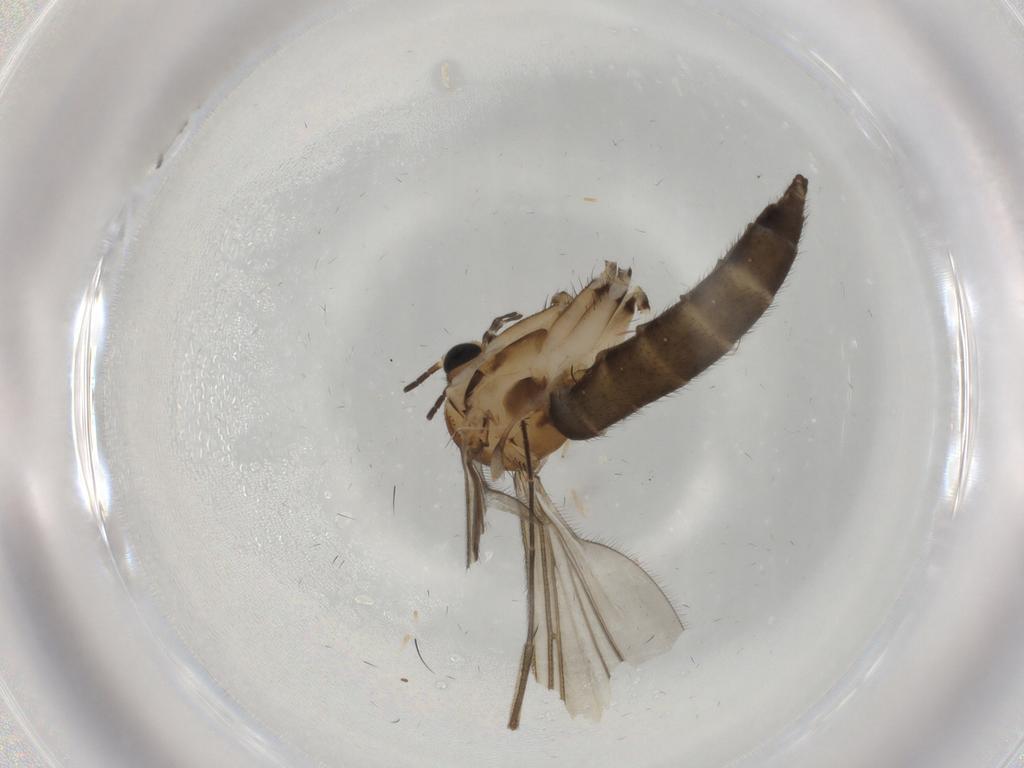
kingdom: Animalia
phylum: Arthropoda
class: Insecta
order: Diptera
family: Sciaridae
